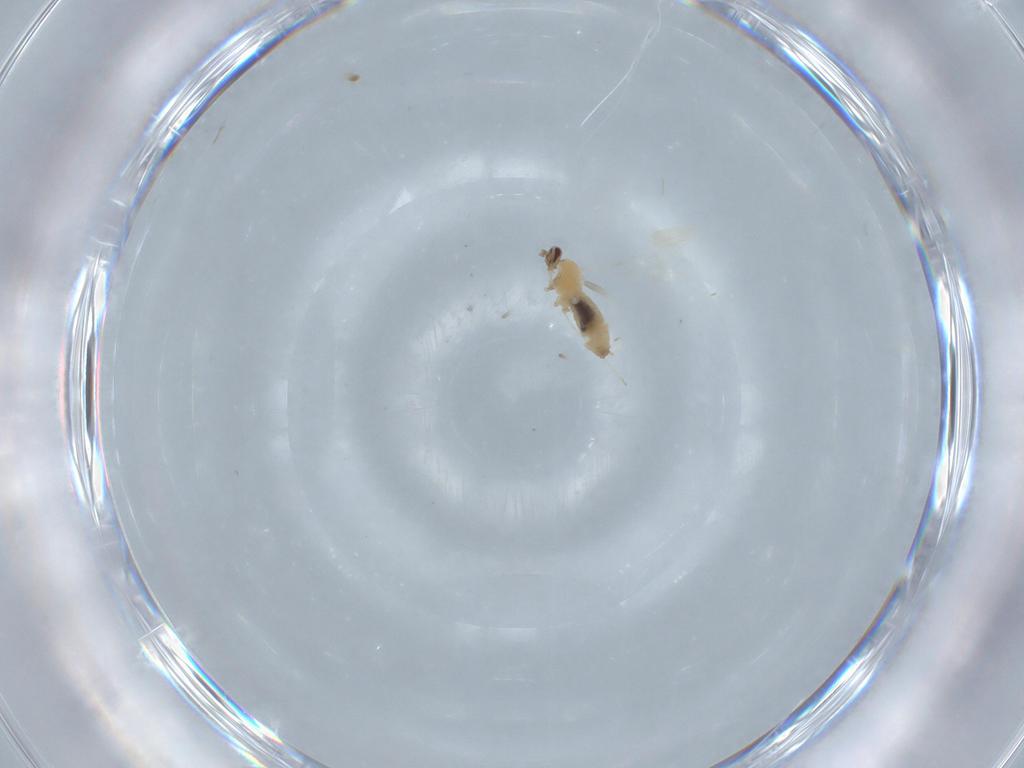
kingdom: Animalia
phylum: Arthropoda
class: Insecta
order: Diptera
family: Cecidomyiidae
